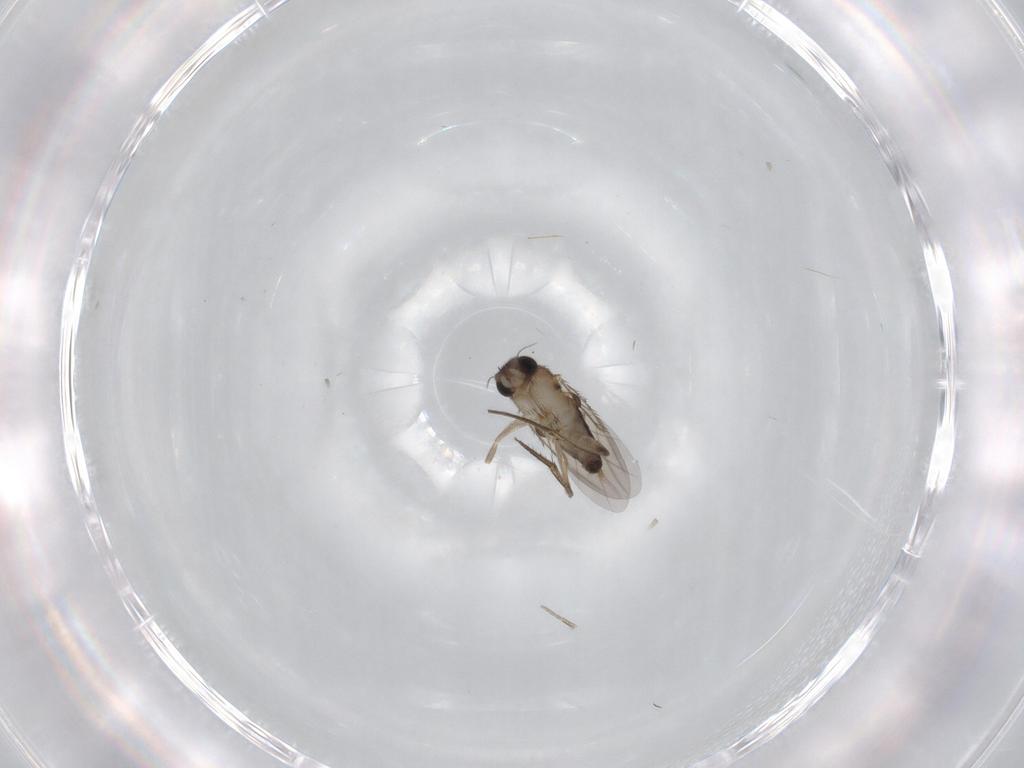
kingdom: Animalia
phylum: Arthropoda
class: Insecta
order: Diptera
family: Phoridae
